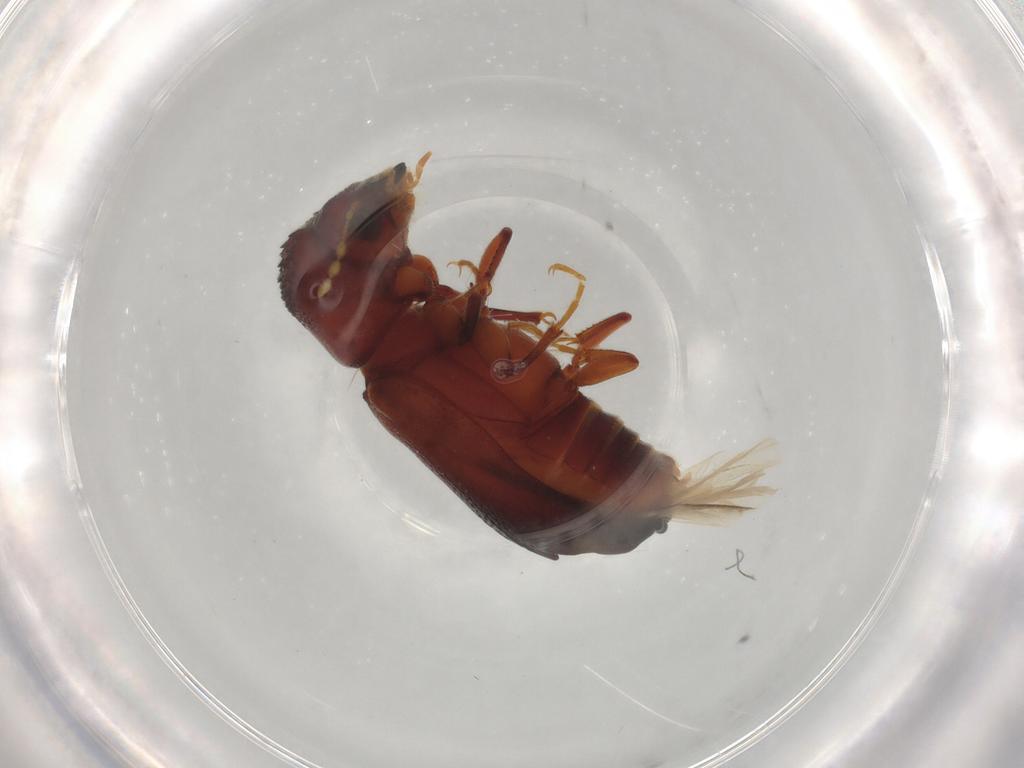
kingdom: Animalia
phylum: Arthropoda
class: Insecta
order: Coleoptera
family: Bostrichidae
